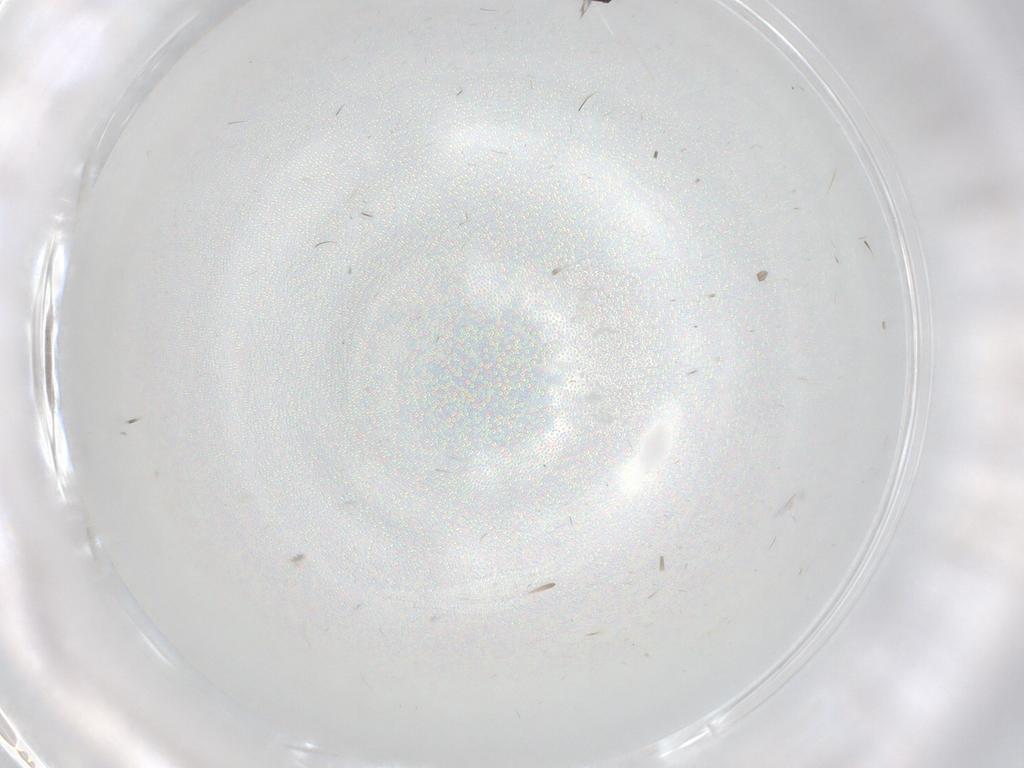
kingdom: Animalia
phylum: Arthropoda
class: Insecta
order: Hymenoptera
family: Mymaridae
